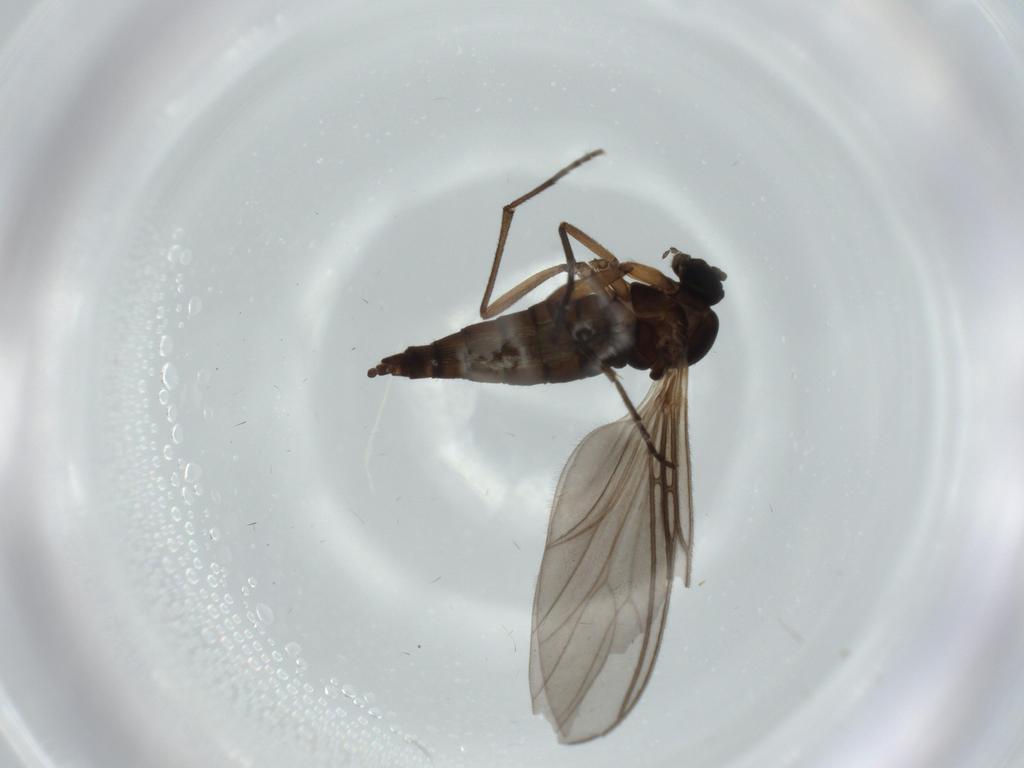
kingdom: Animalia
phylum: Arthropoda
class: Insecta
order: Diptera
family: Sciaridae
